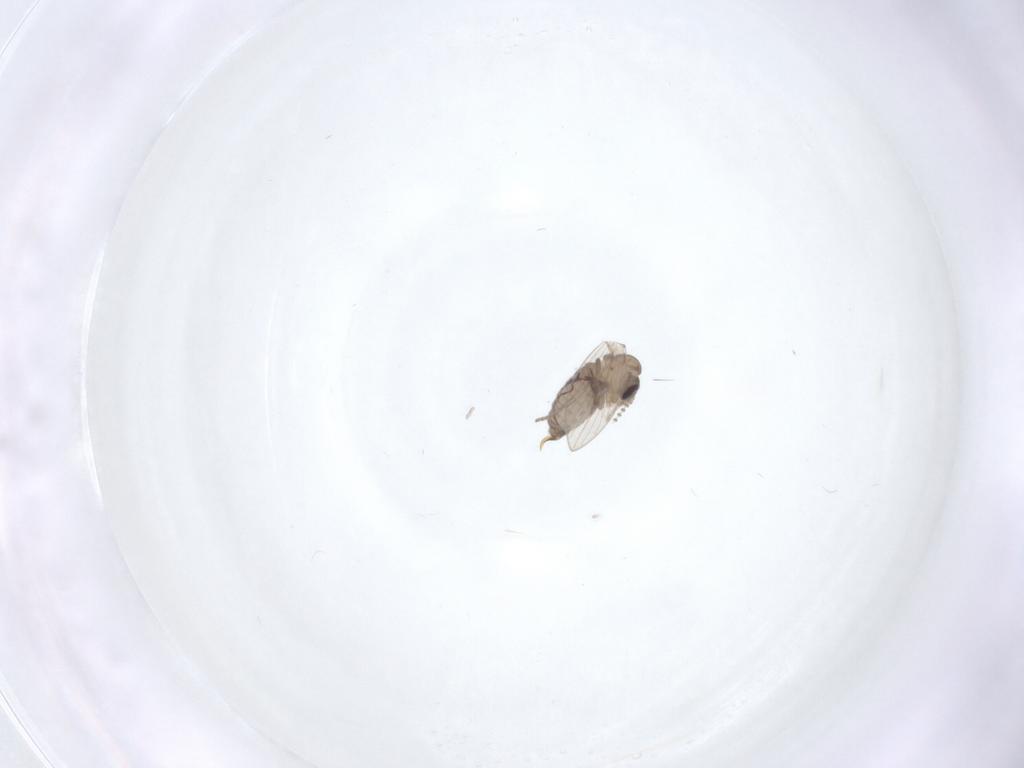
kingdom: Animalia
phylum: Arthropoda
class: Insecta
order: Diptera
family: Psychodidae
